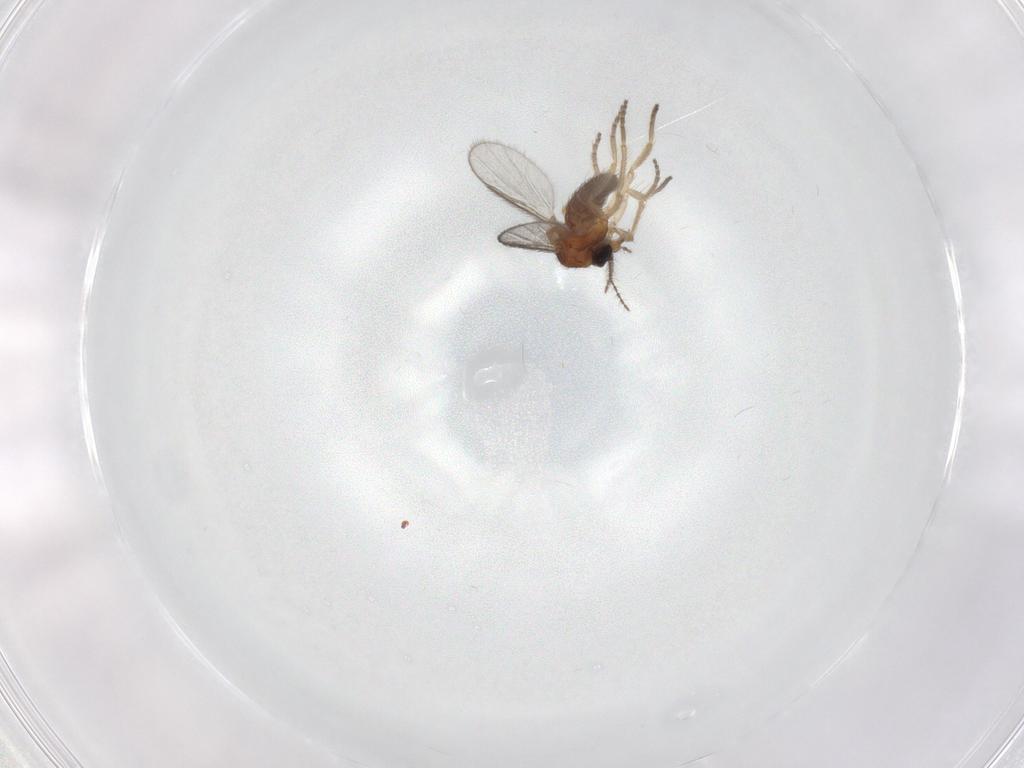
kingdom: Animalia
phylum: Arthropoda
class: Insecta
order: Diptera
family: Ceratopogonidae
